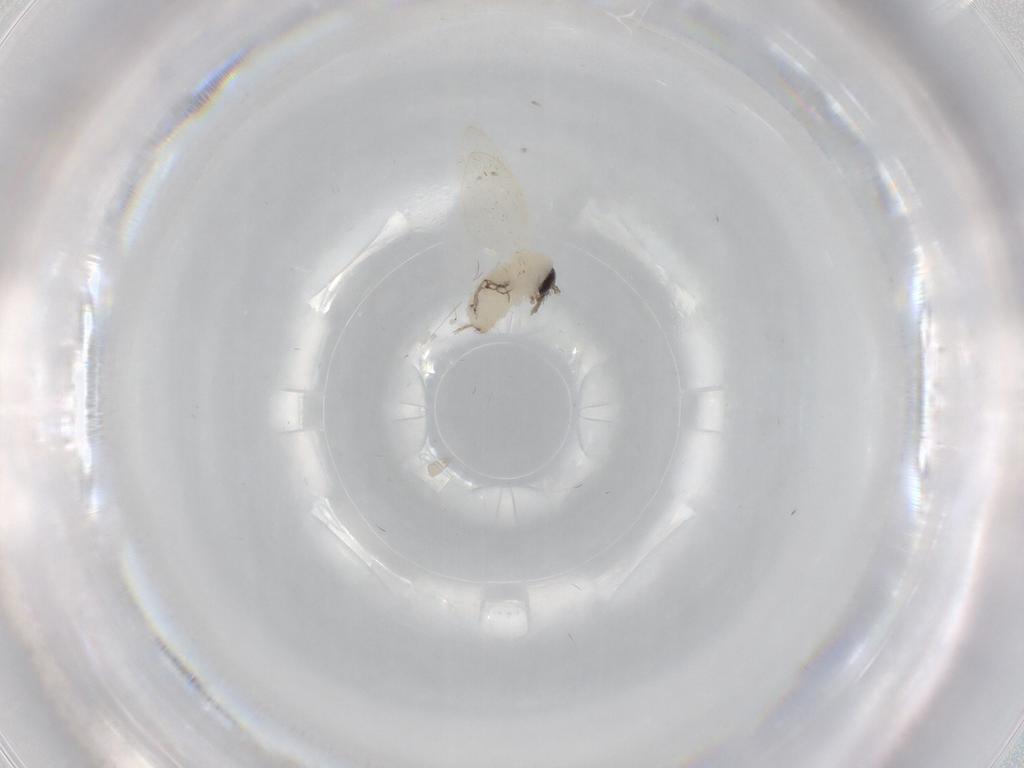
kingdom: Animalia
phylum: Arthropoda
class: Insecta
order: Diptera
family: Psychodidae
